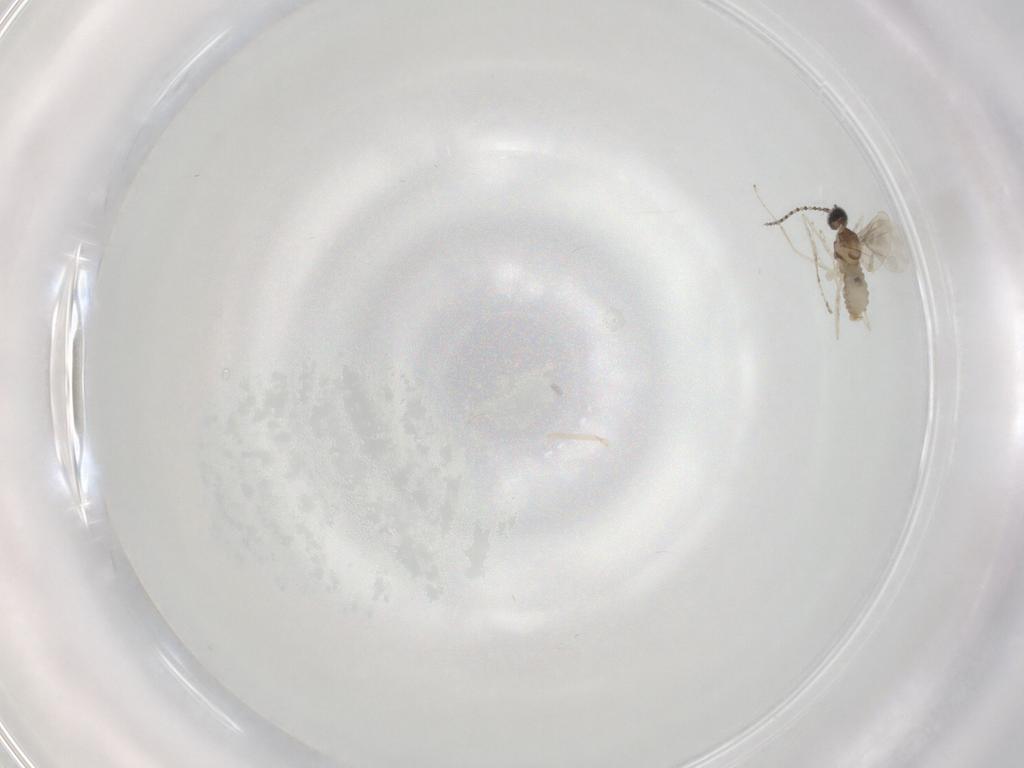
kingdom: Animalia
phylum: Arthropoda
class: Insecta
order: Diptera
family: Cecidomyiidae
